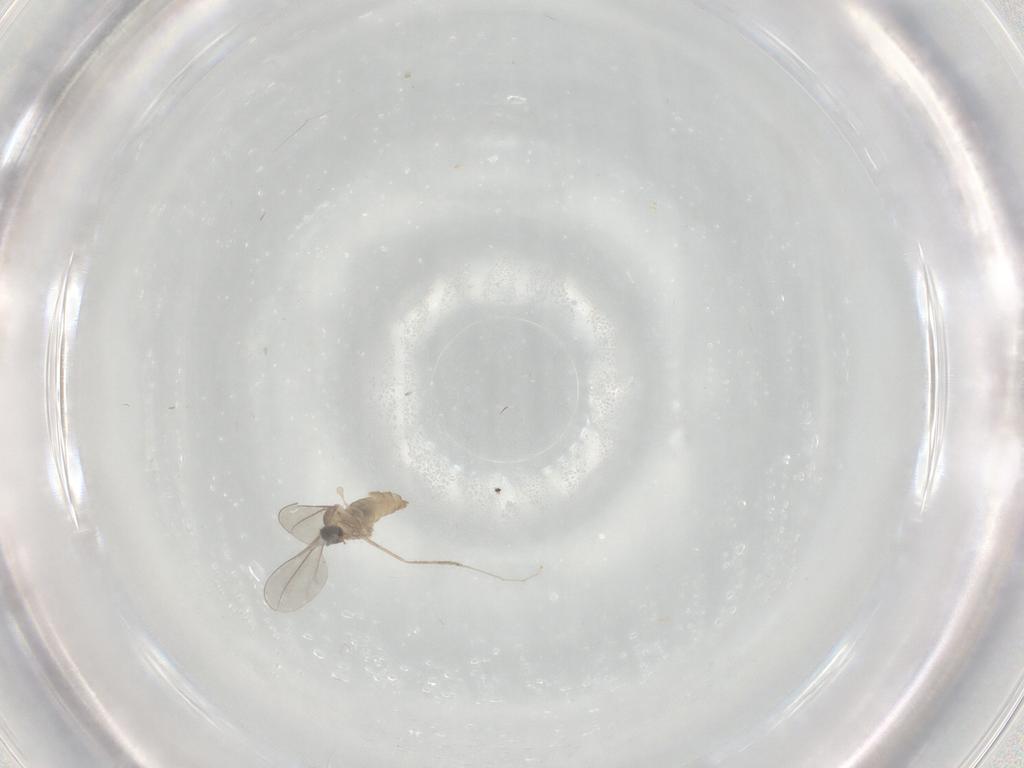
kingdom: Animalia
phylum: Arthropoda
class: Insecta
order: Diptera
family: Cecidomyiidae
